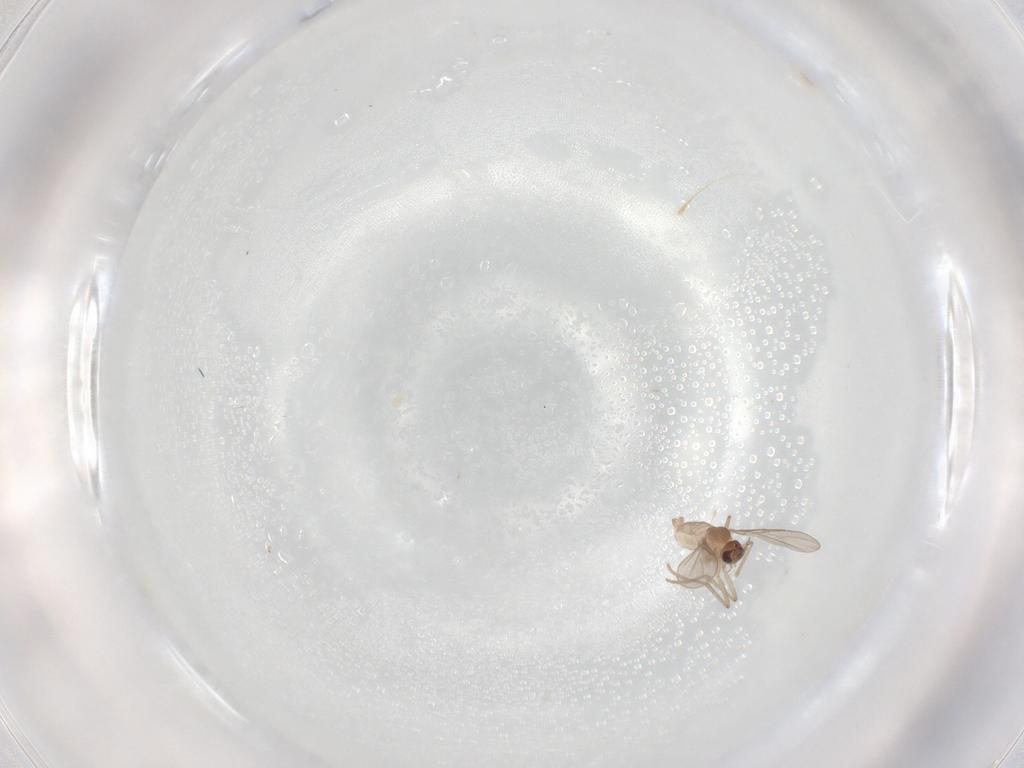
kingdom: Animalia
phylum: Arthropoda
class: Insecta
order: Diptera
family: Cecidomyiidae
